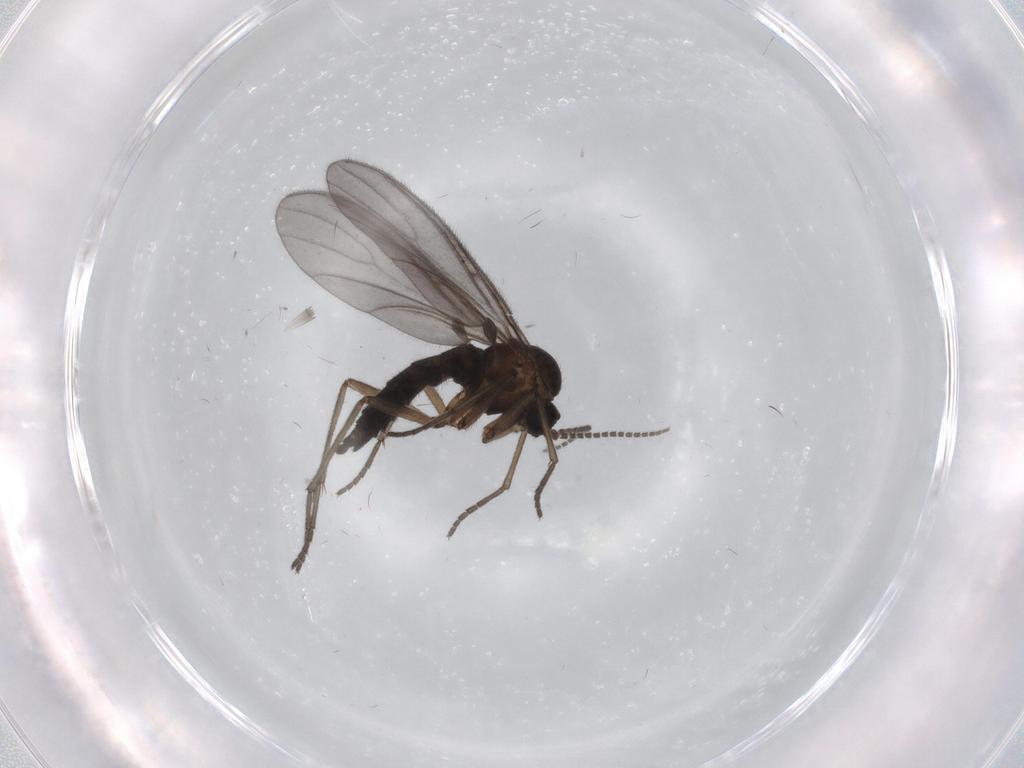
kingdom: Animalia
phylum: Arthropoda
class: Insecta
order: Diptera
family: Sciaridae
